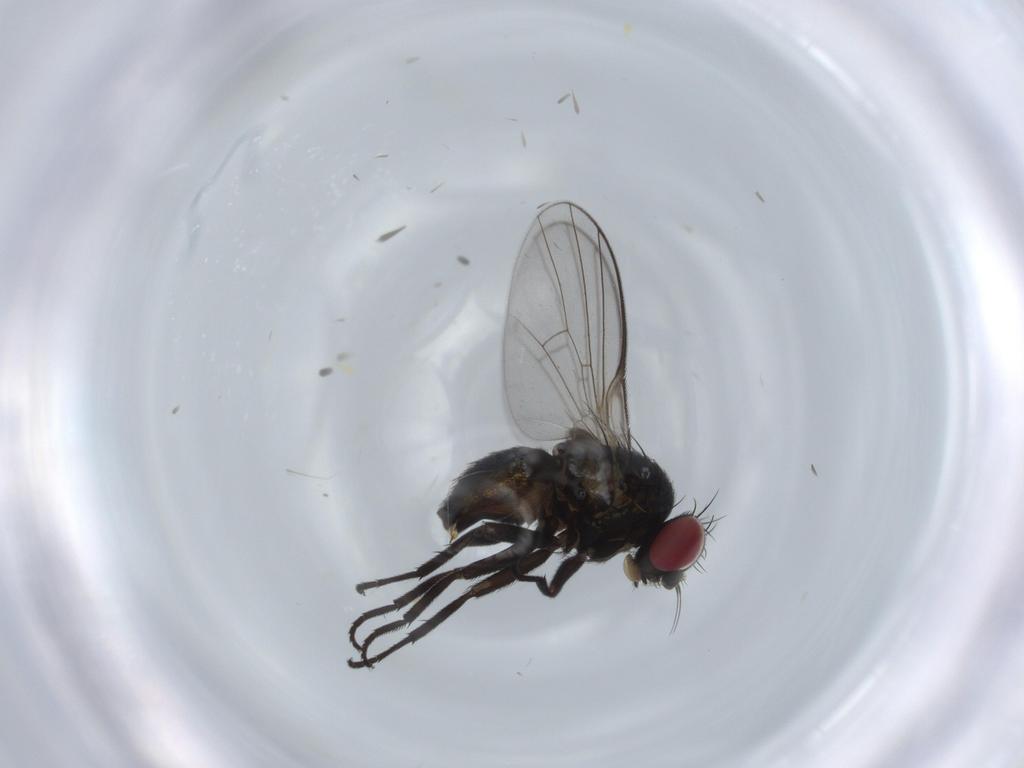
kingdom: Animalia
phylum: Arthropoda
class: Insecta
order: Diptera
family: Agromyzidae
